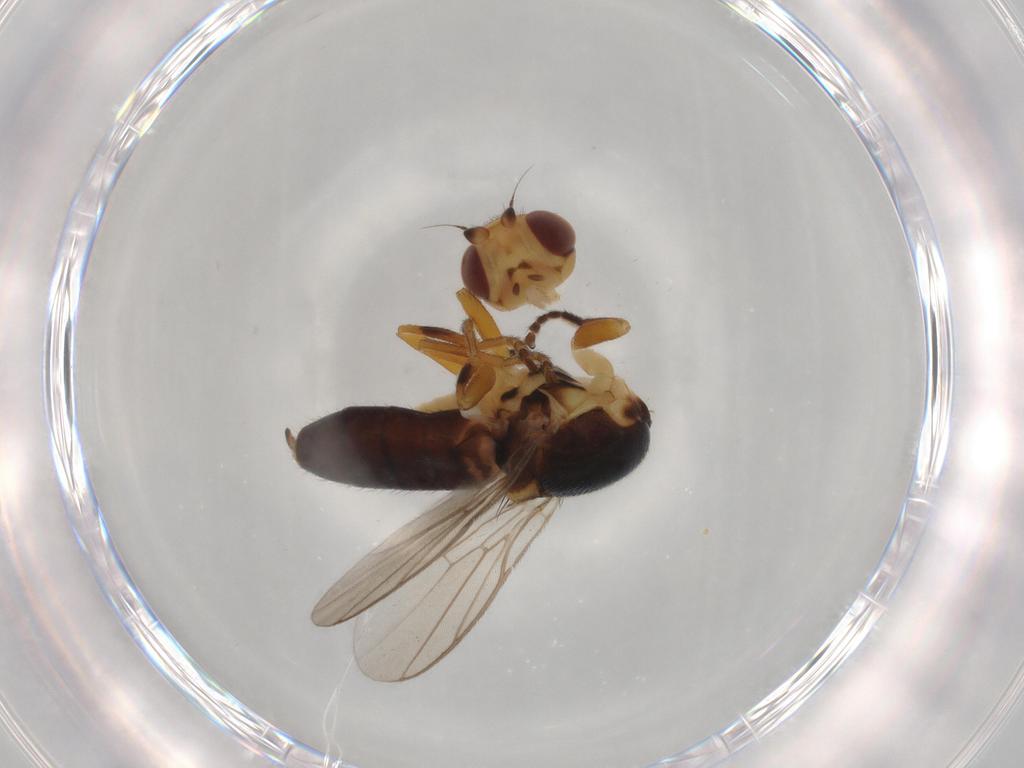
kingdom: Animalia
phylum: Arthropoda
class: Insecta
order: Diptera
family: Chloropidae
